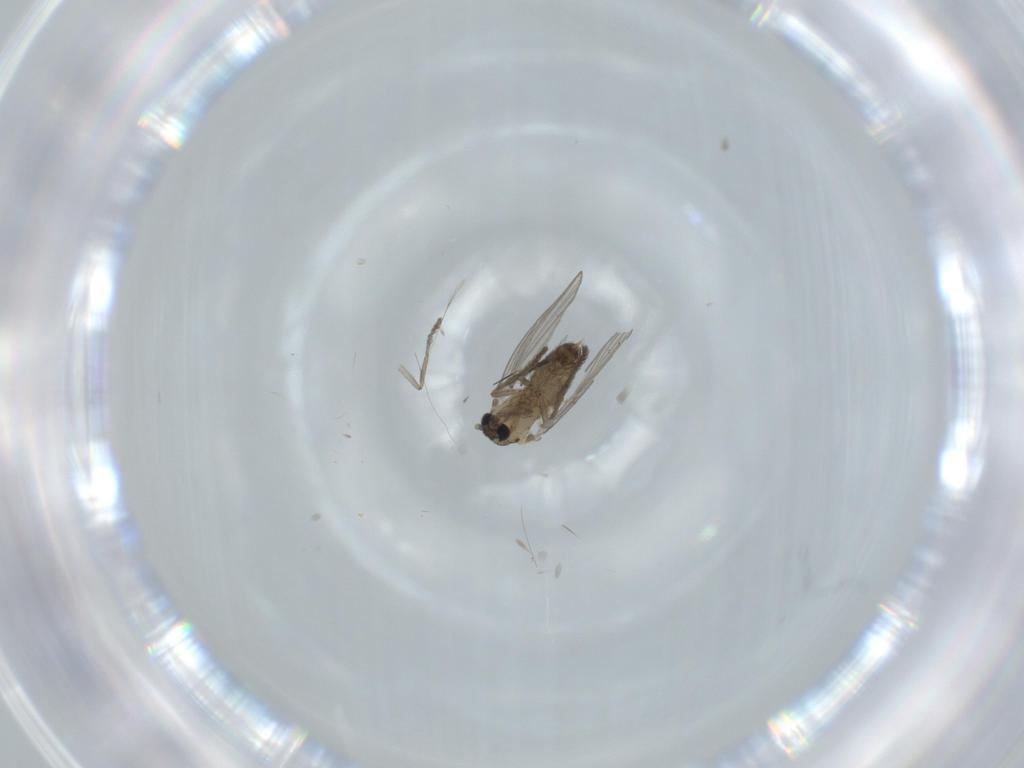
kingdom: Animalia
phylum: Arthropoda
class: Insecta
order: Diptera
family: Psychodidae
